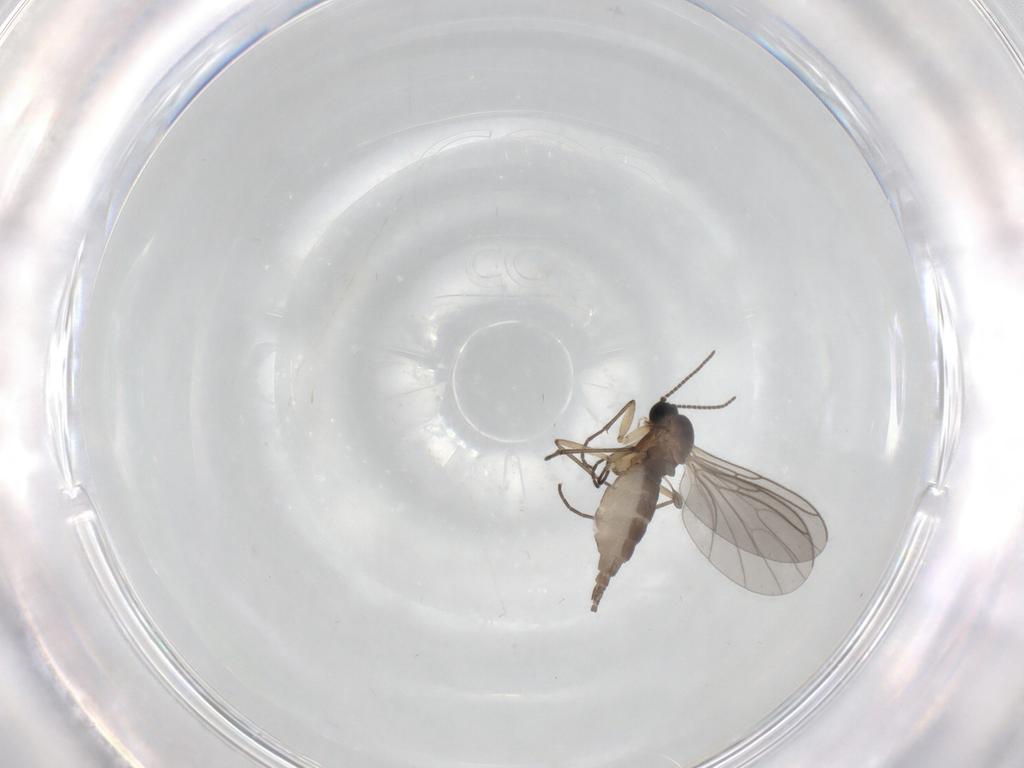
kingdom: Animalia
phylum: Arthropoda
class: Insecta
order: Diptera
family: Sciaridae
